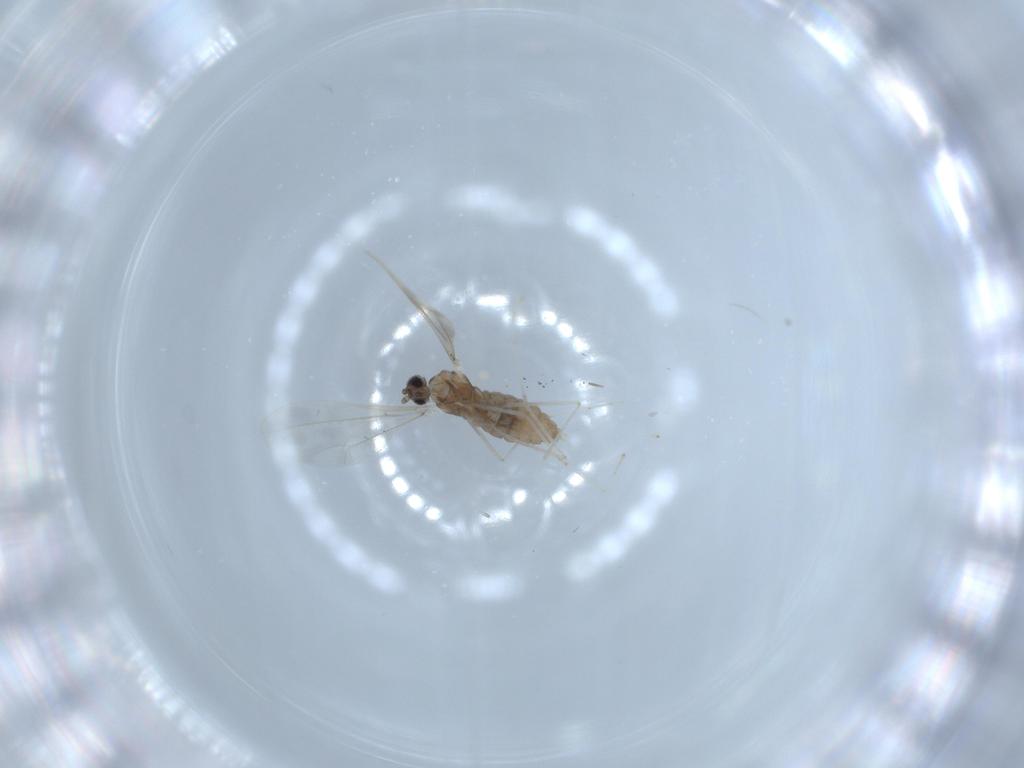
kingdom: Animalia
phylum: Arthropoda
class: Insecta
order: Diptera
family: Cecidomyiidae
